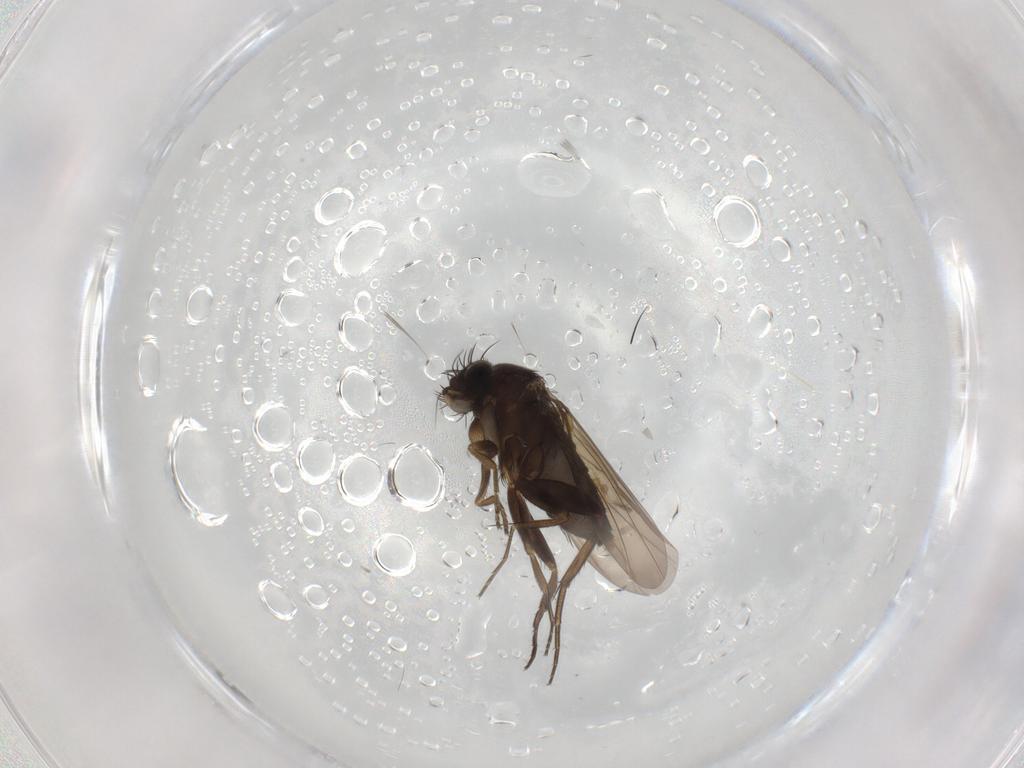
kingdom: Animalia
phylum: Arthropoda
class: Insecta
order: Diptera
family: Phoridae
